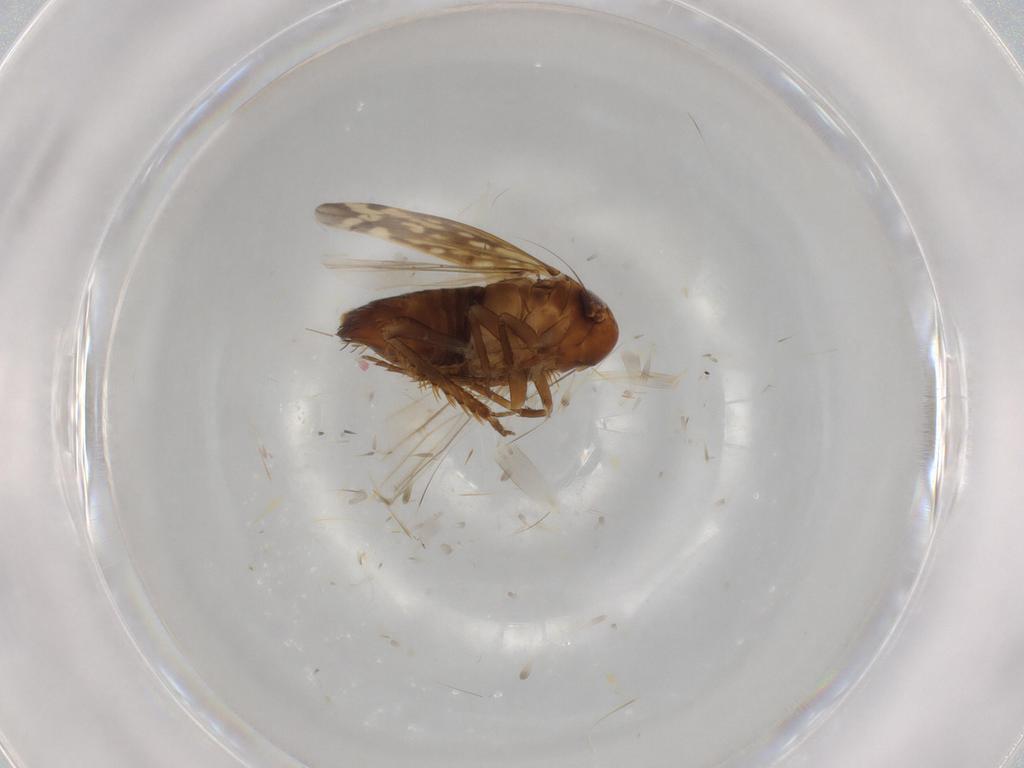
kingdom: Animalia
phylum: Arthropoda
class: Insecta
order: Hemiptera
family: Cicadellidae
